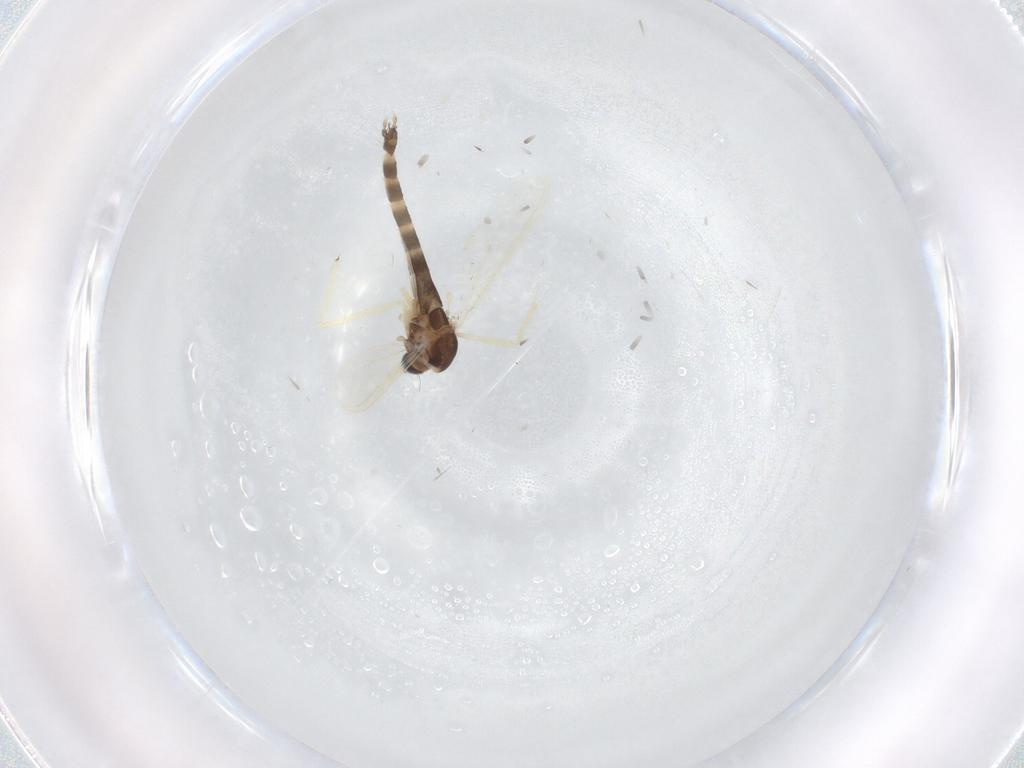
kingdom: Animalia
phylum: Arthropoda
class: Insecta
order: Diptera
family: Chironomidae
